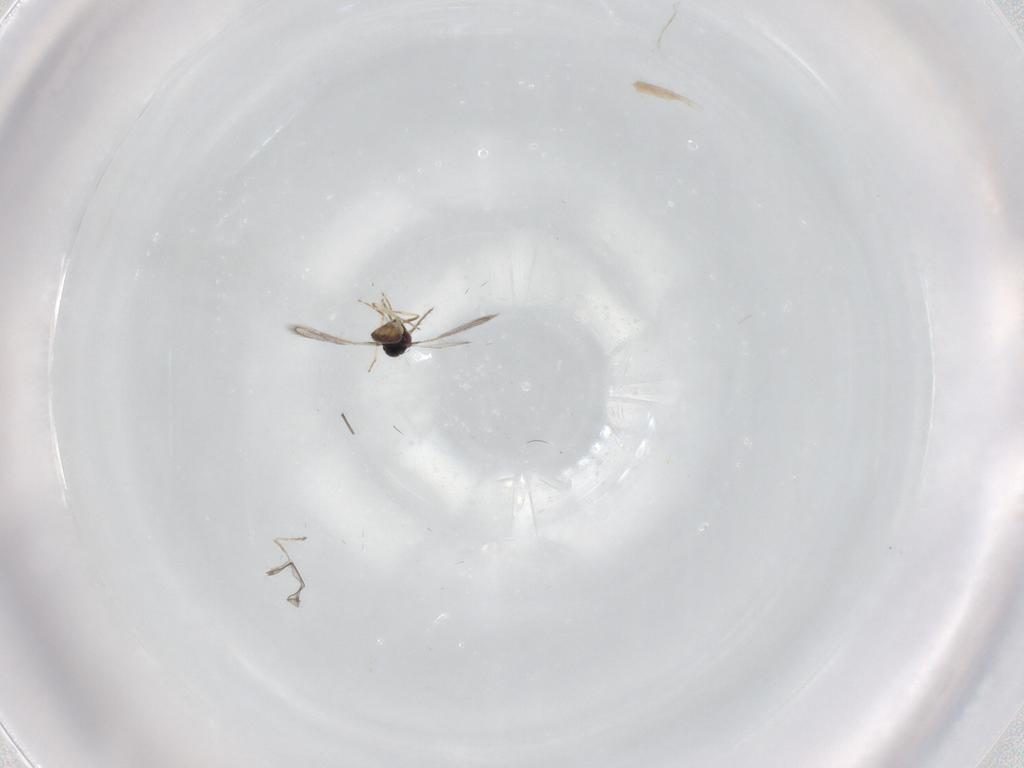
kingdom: Animalia
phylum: Arthropoda
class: Insecta
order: Hymenoptera
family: Eulophidae
